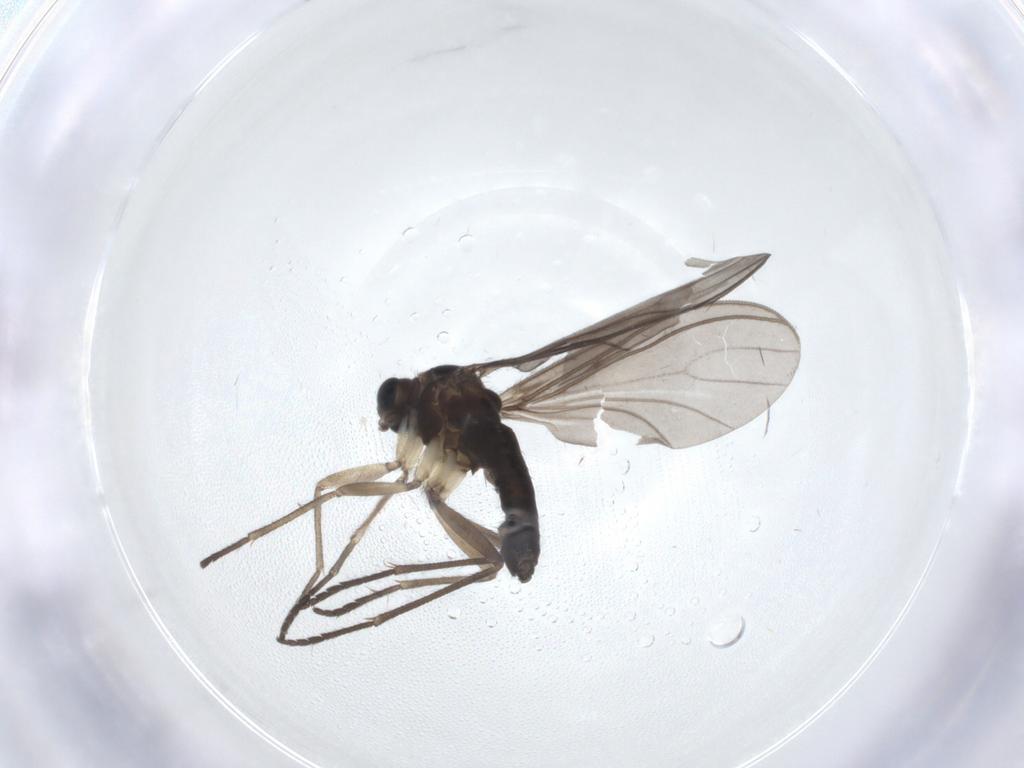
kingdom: Animalia
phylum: Arthropoda
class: Insecta
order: Diptera
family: Sciaridae
